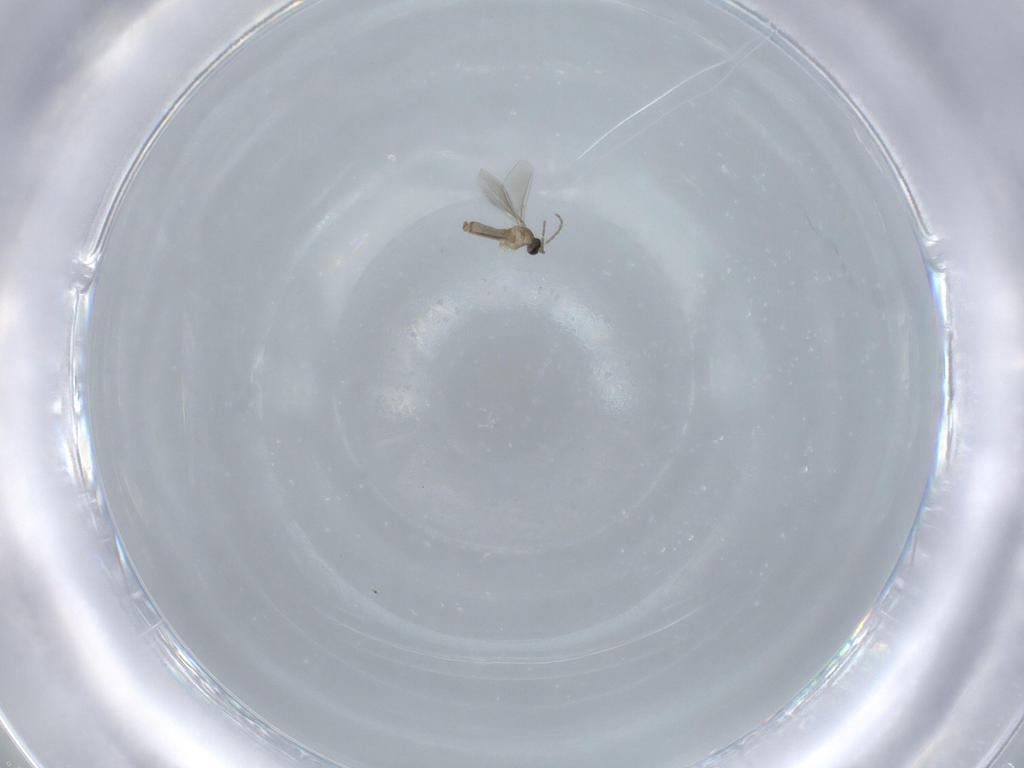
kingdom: Animalia
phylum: Arthropoda
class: Insecta
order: Diptera
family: Cecidomyiidae
